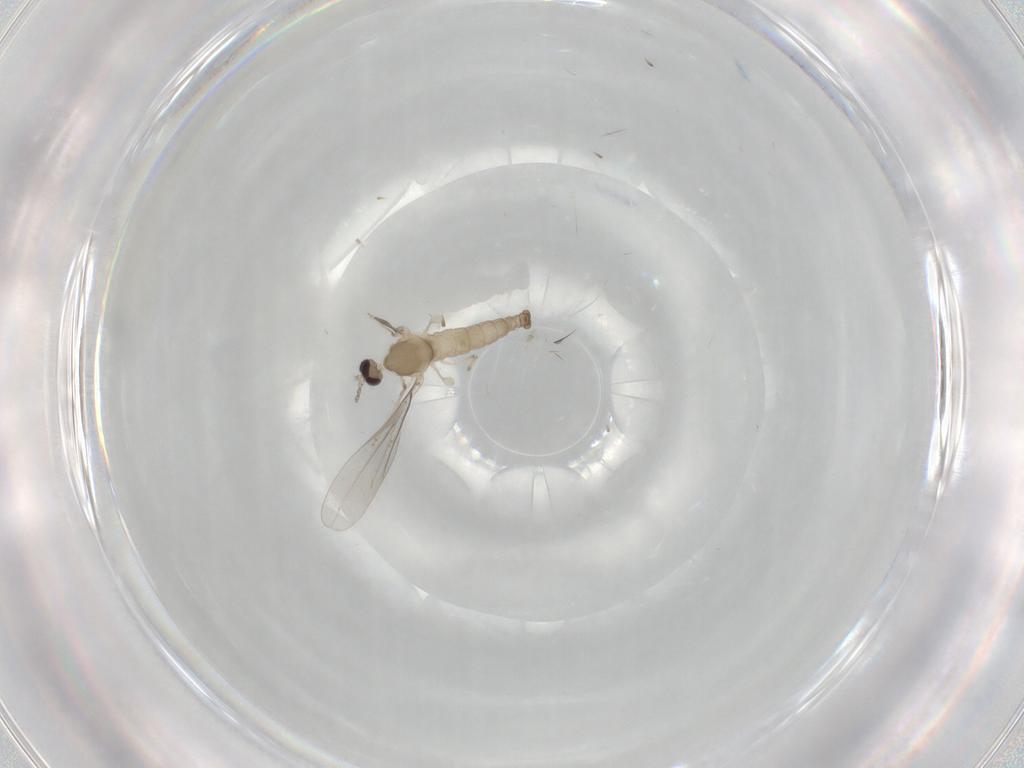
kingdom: Animalia
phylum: Arthropoda
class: Insecta
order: Diptera
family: Cecidomyiidae
